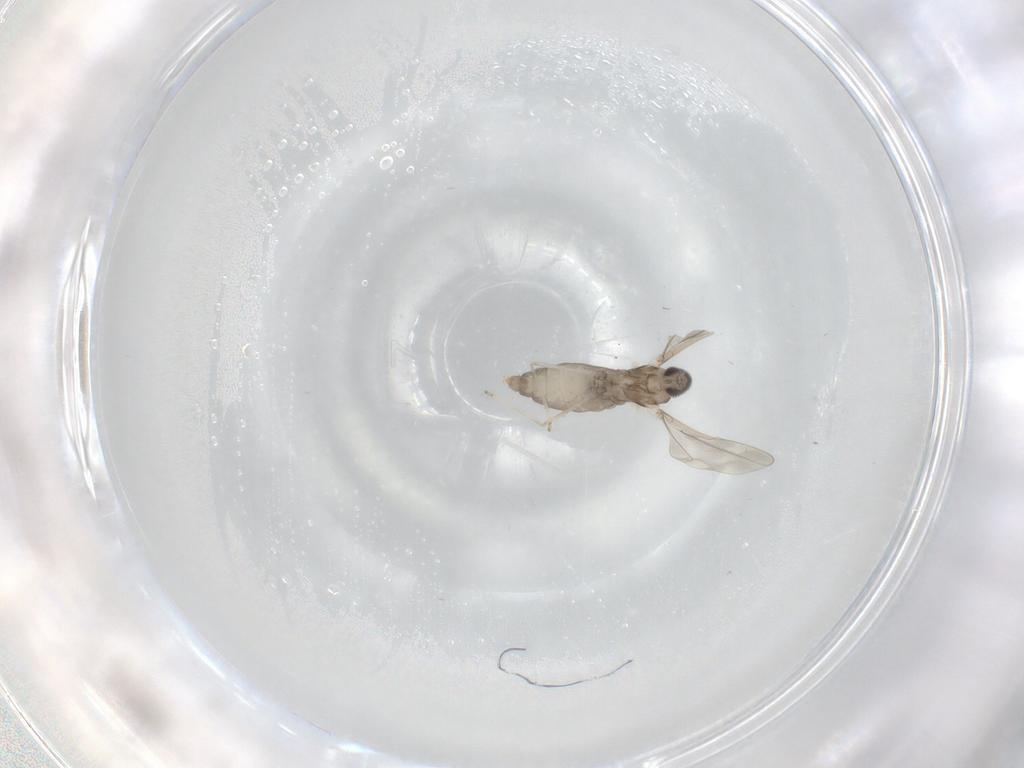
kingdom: Animalia
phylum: Arthropoda
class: Insecta
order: Diptera
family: Cecidomyiidae
